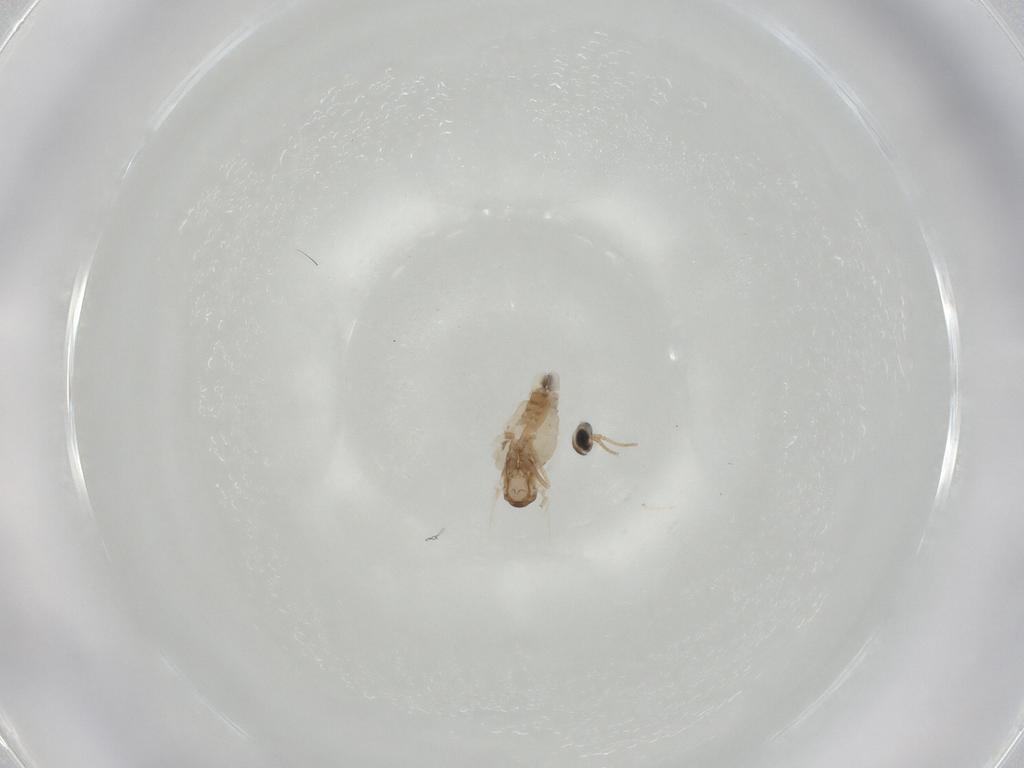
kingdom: Animalia
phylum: Arthropoda
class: Insecta
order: Diptera
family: Cecidomyiidae
